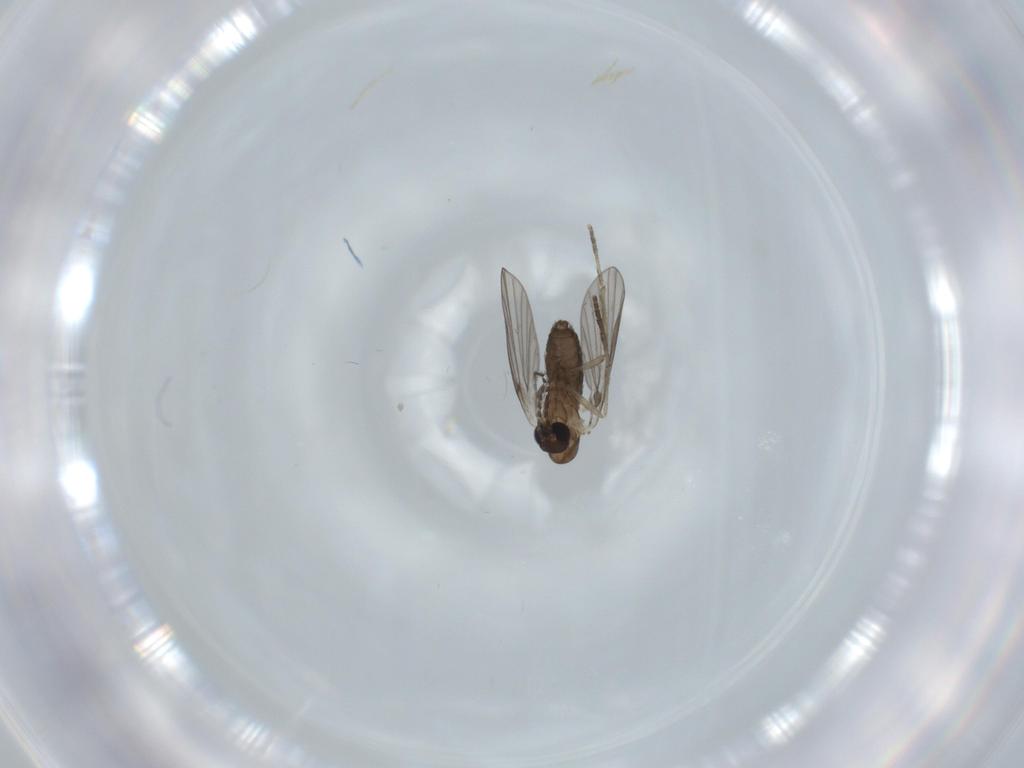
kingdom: Animalia
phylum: Arthropoda
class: Insecta
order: Diptera
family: Psychodidae
